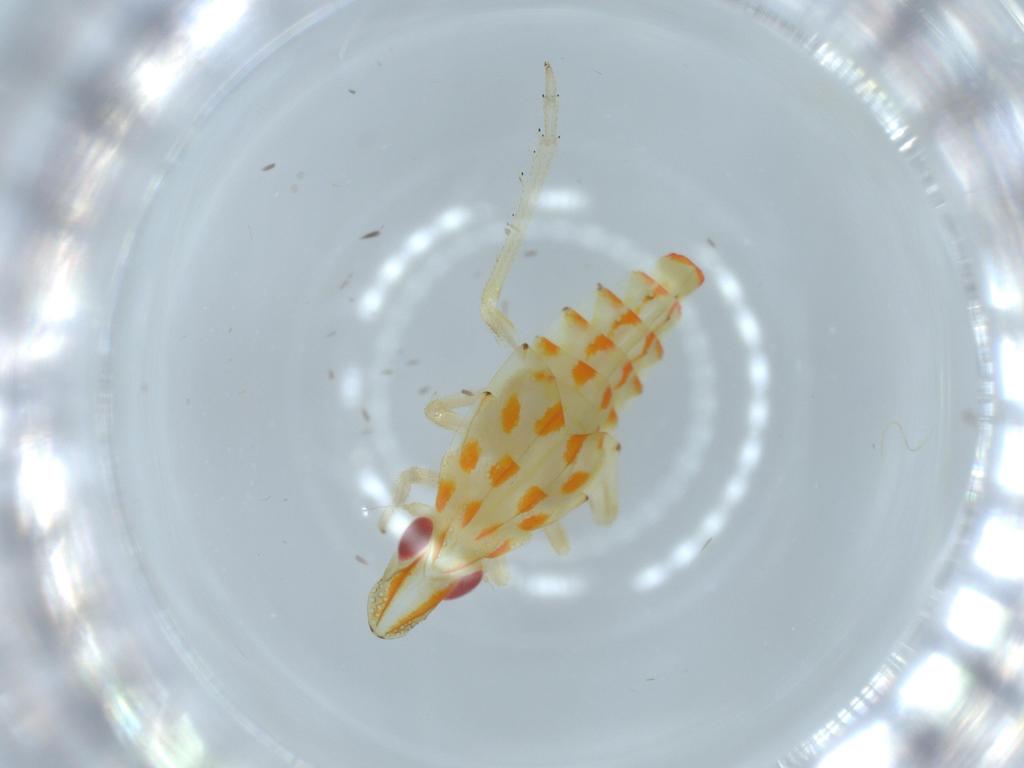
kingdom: Animalia
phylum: Arthropoda
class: Insecta
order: Hemiptera
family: Tropiduchidae
